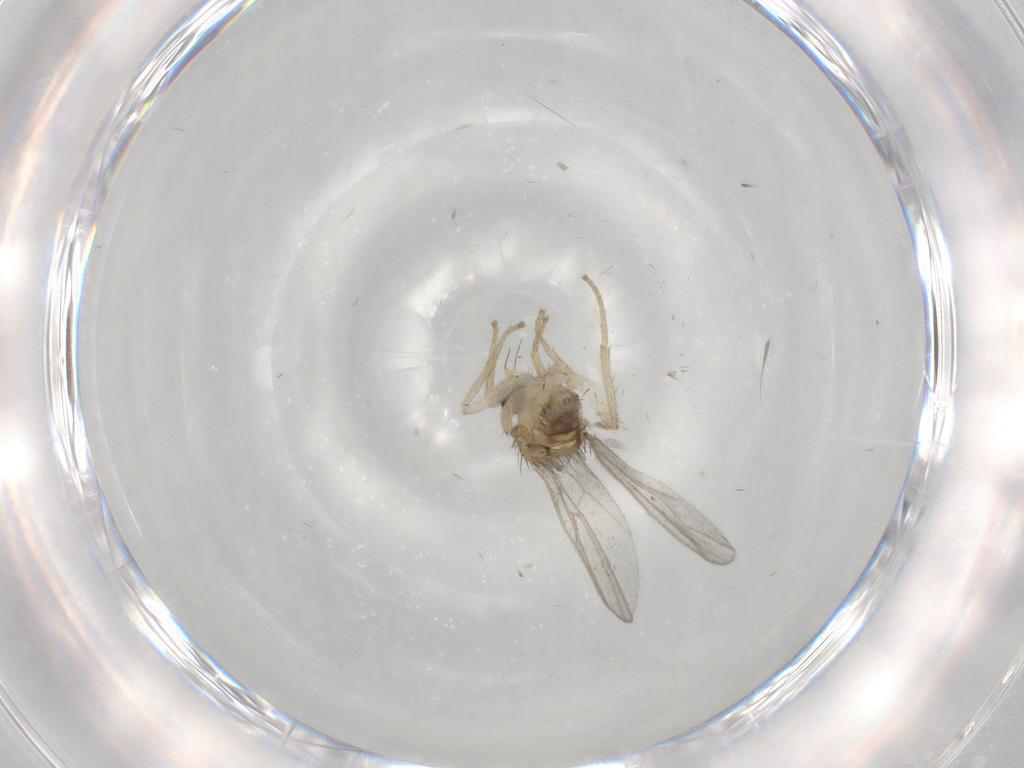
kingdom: Animalia
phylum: Arthropoda
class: Insecta
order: Diptera
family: Hybotidae
